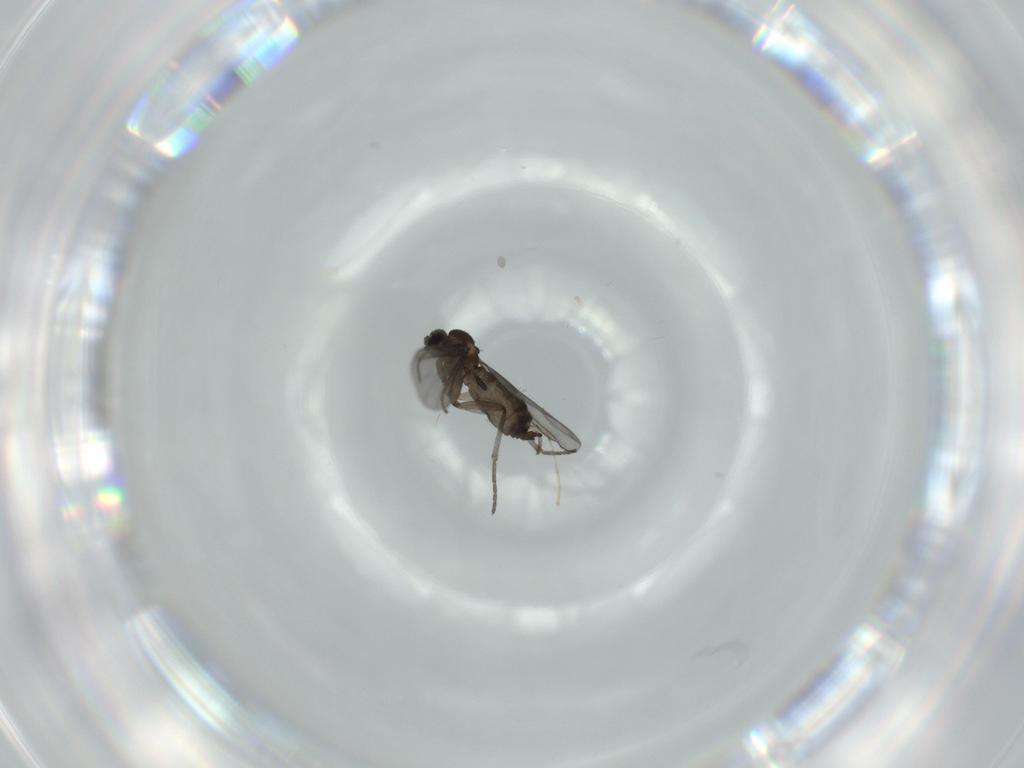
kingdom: Animalia
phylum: Arthropoda
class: Insecta
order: Diptera
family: Cecidomyiidae
